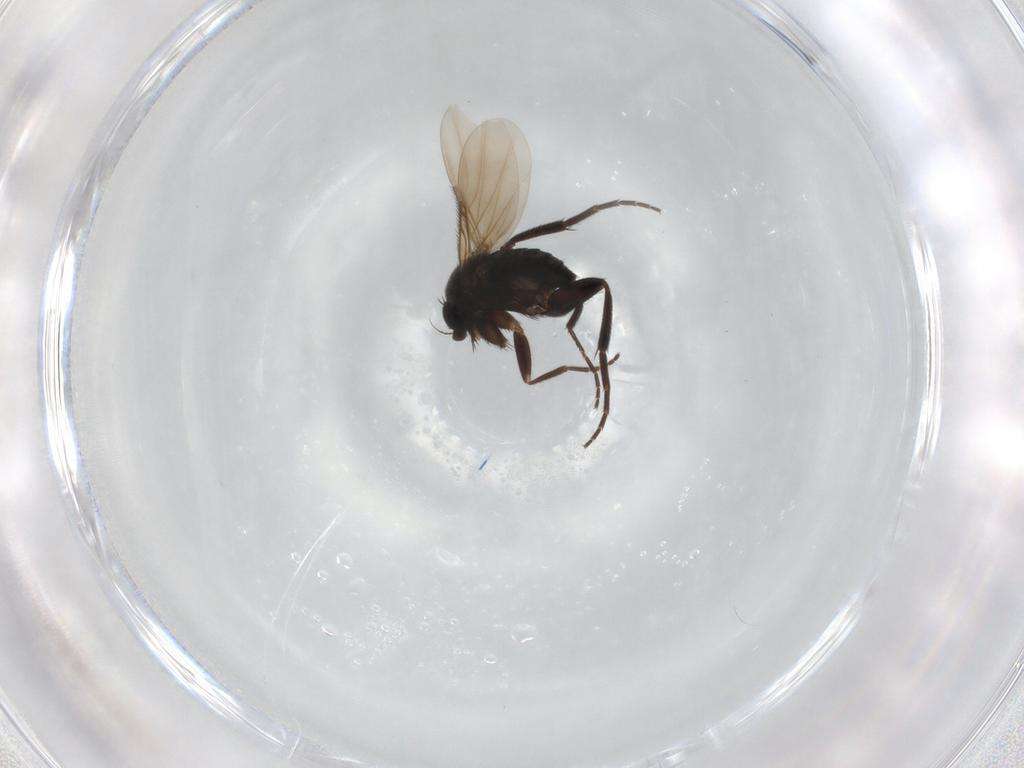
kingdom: Animalia
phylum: Arthropoda
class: Insecta
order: Diptera
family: Phoridae
